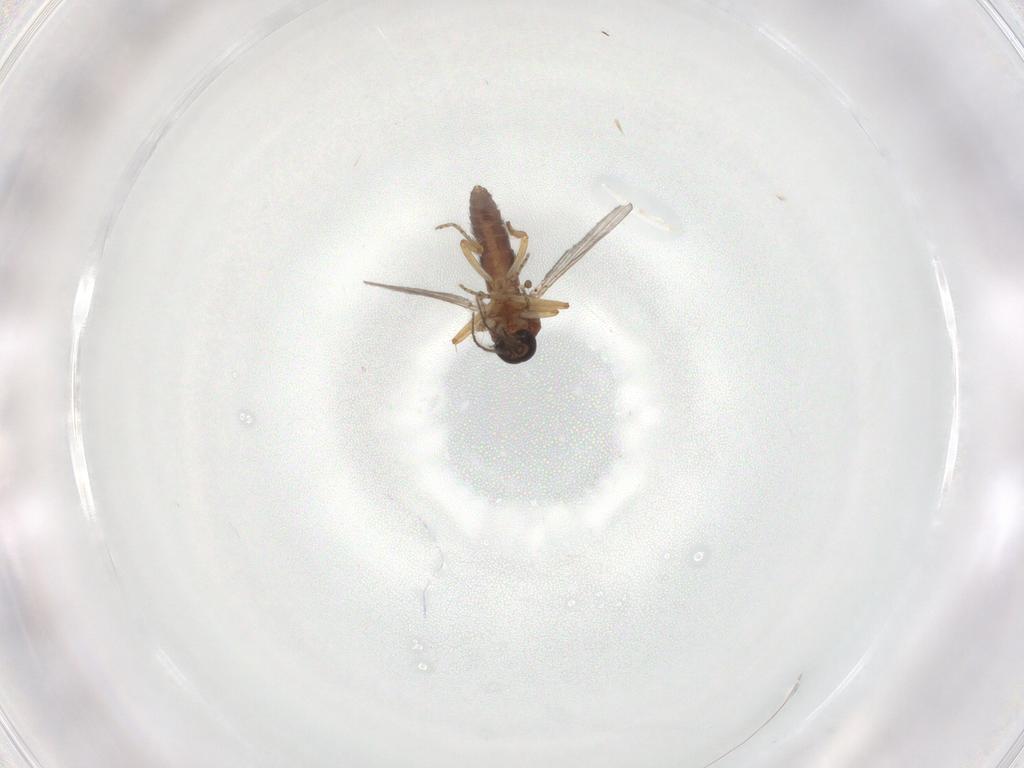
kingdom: Animalia
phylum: Arthropoda
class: Insecta
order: Diptera
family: Ceratopogonidae
